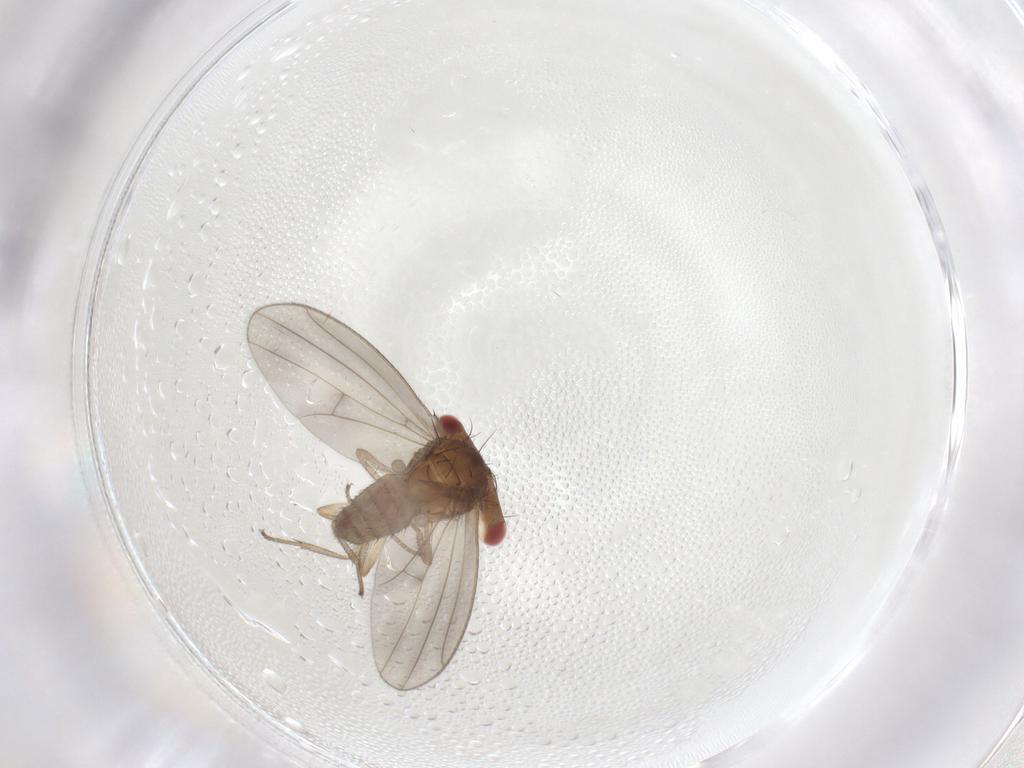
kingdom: Animalia
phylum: Arthropoda
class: Insecta
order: Diptera
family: Drosophilidae
